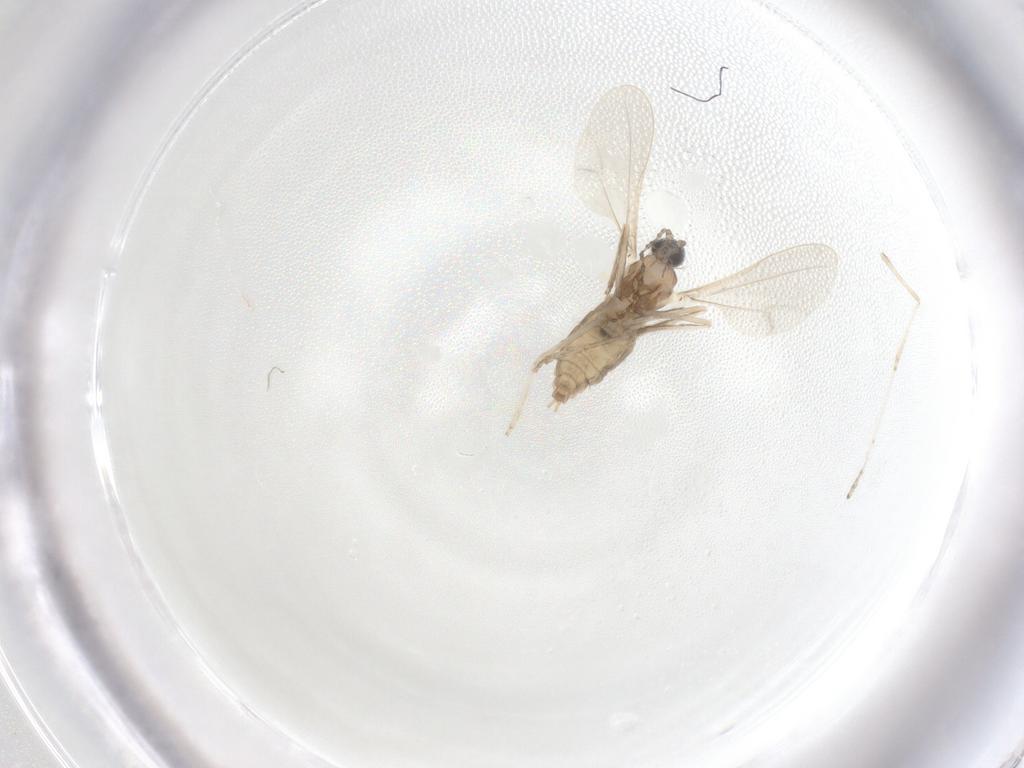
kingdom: Animalia
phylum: Arthropoda
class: Insecta
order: Diptera
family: Cecidomyiidae
